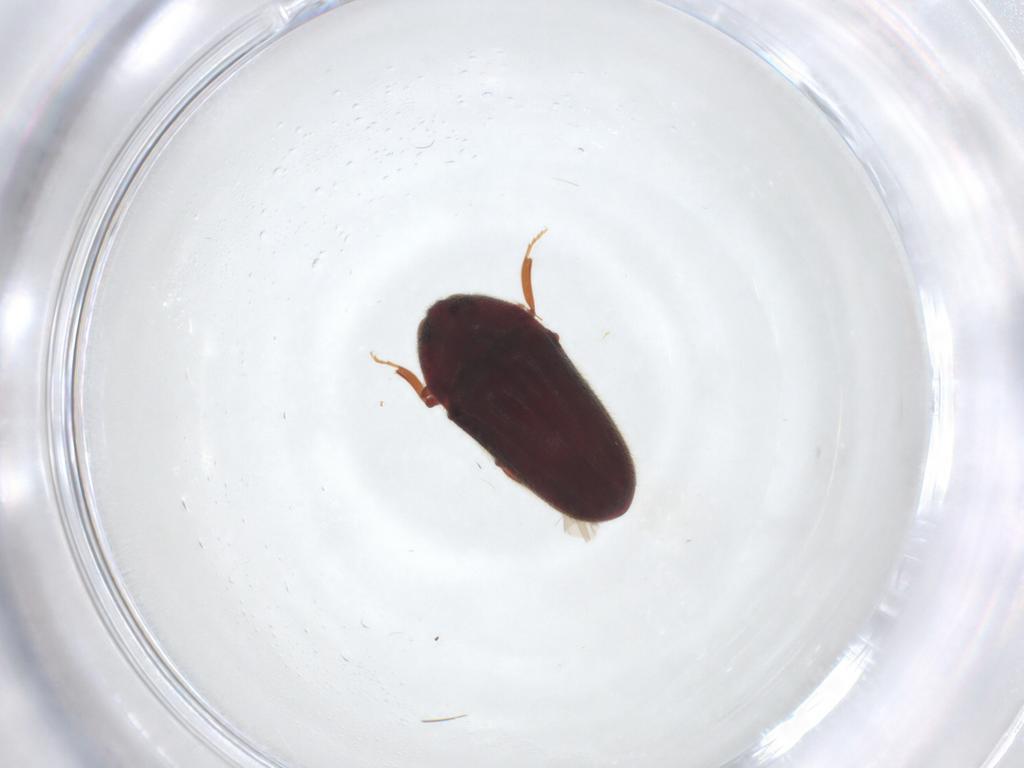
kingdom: Animalia
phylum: Arthropoda
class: Insecta
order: Coleoptera
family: Throscidae
